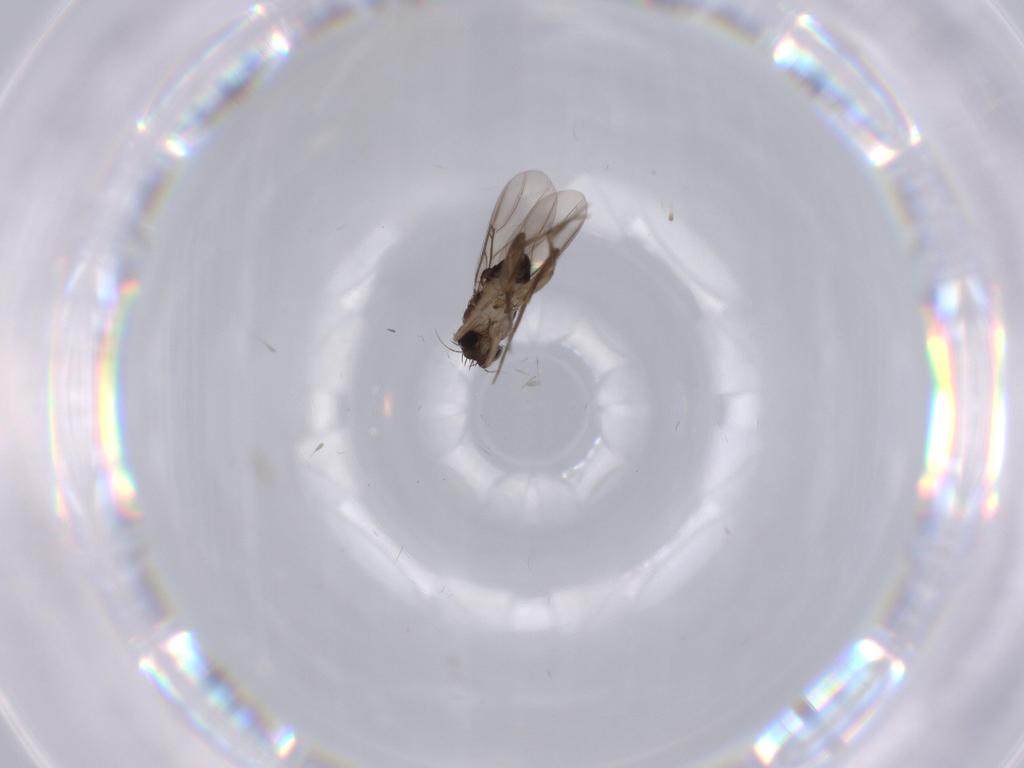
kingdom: Animalia
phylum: Arthropoda
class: Insecta
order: Diptera
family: Phoridae
